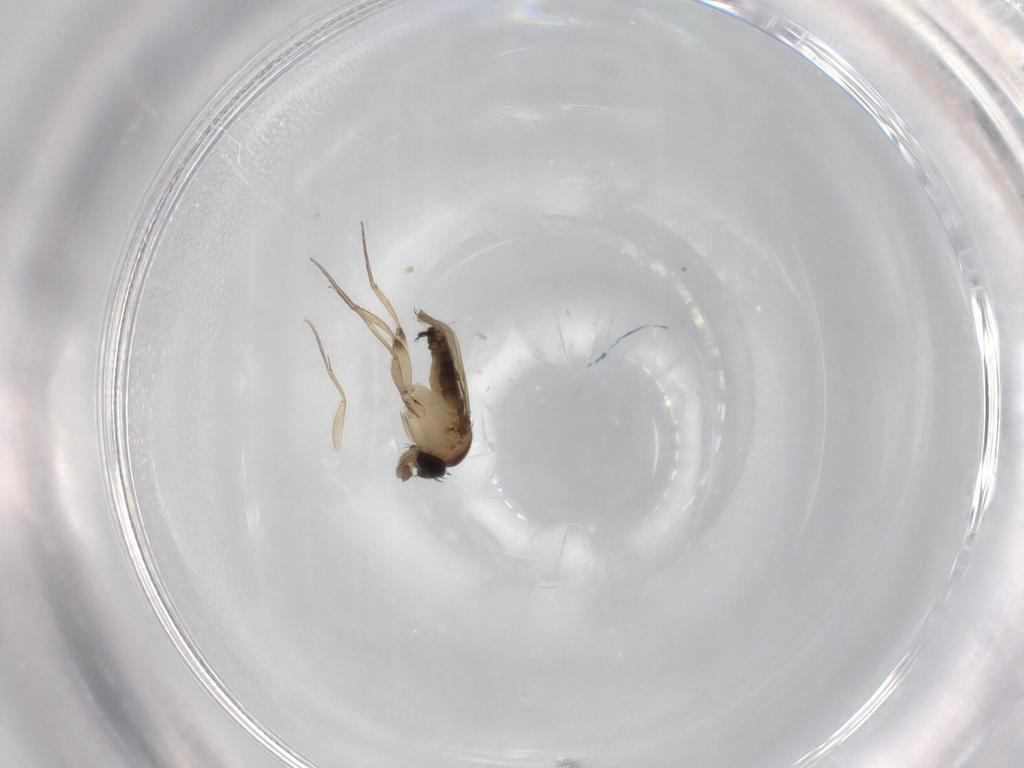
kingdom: Animalia
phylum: Arthropoda
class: Insecta
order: Diptera
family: Phoridae
